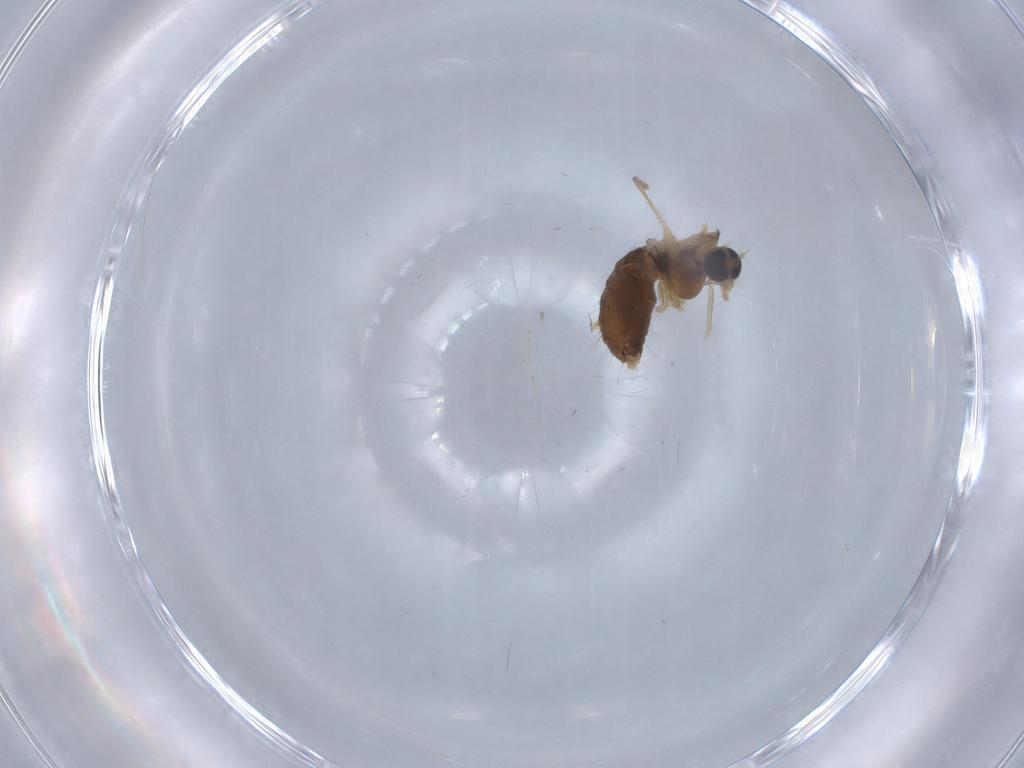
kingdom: Animalia
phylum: Arthropoda
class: Insecta
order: Diptera
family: Chironomidae
